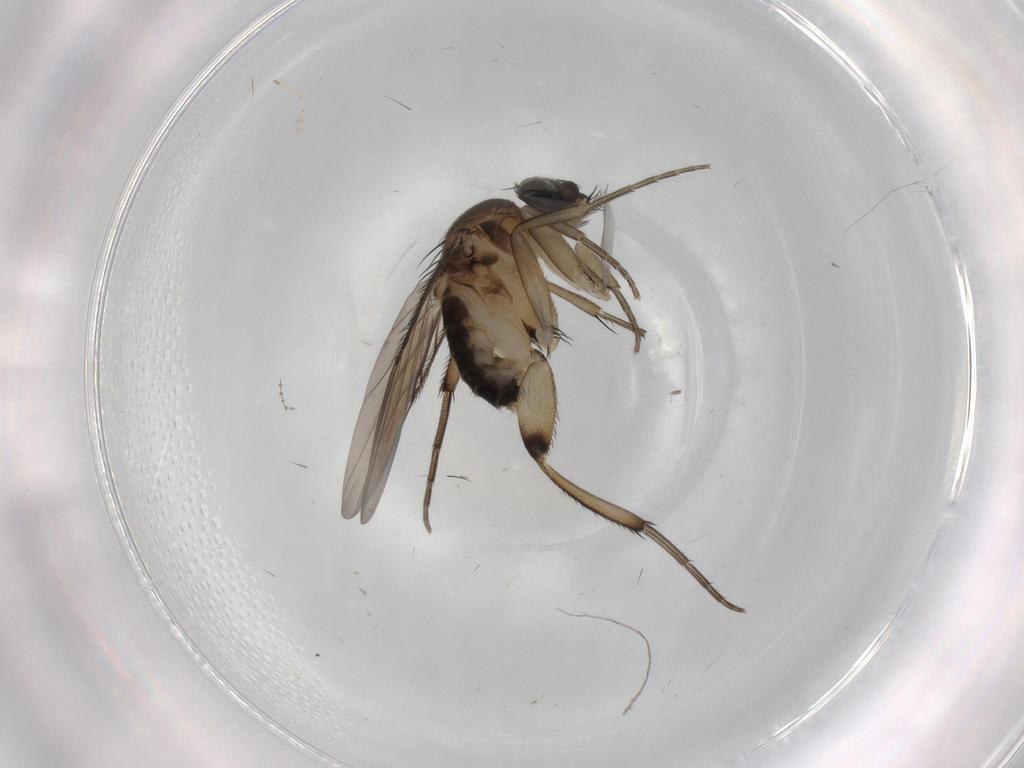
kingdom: Animalia
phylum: Arthropoda
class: Insecta
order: Diptera
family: Phoridae
